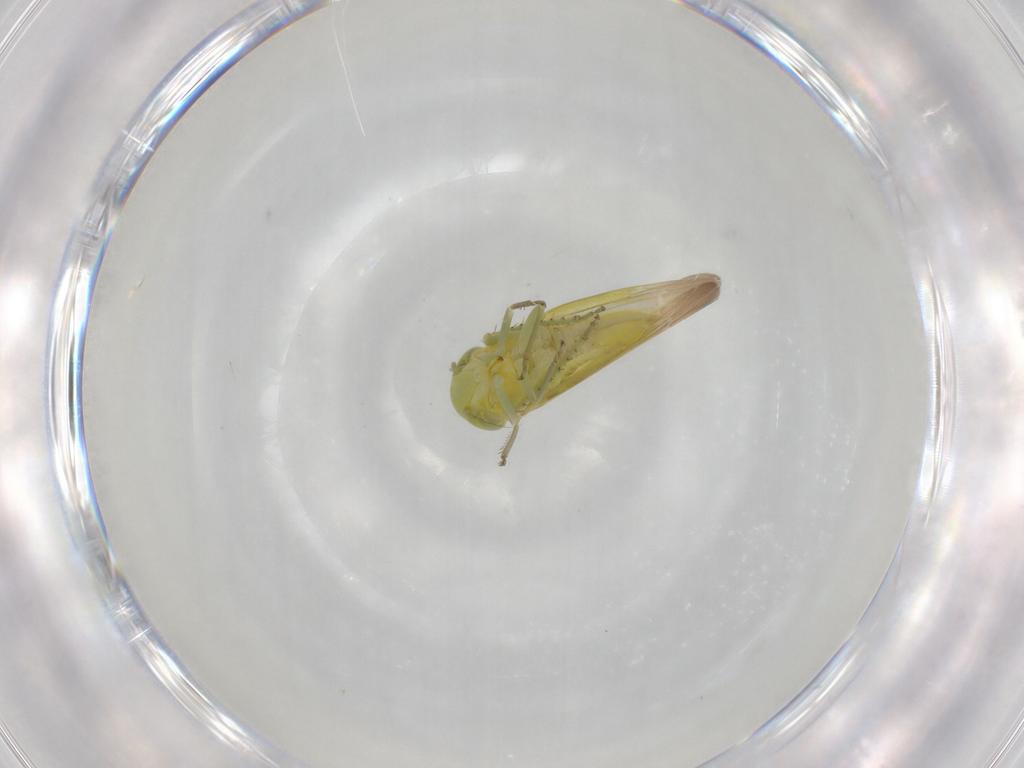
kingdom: Animalia
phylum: Arthropoda
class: Insecta
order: Hemiptera
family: Cicadellidae
